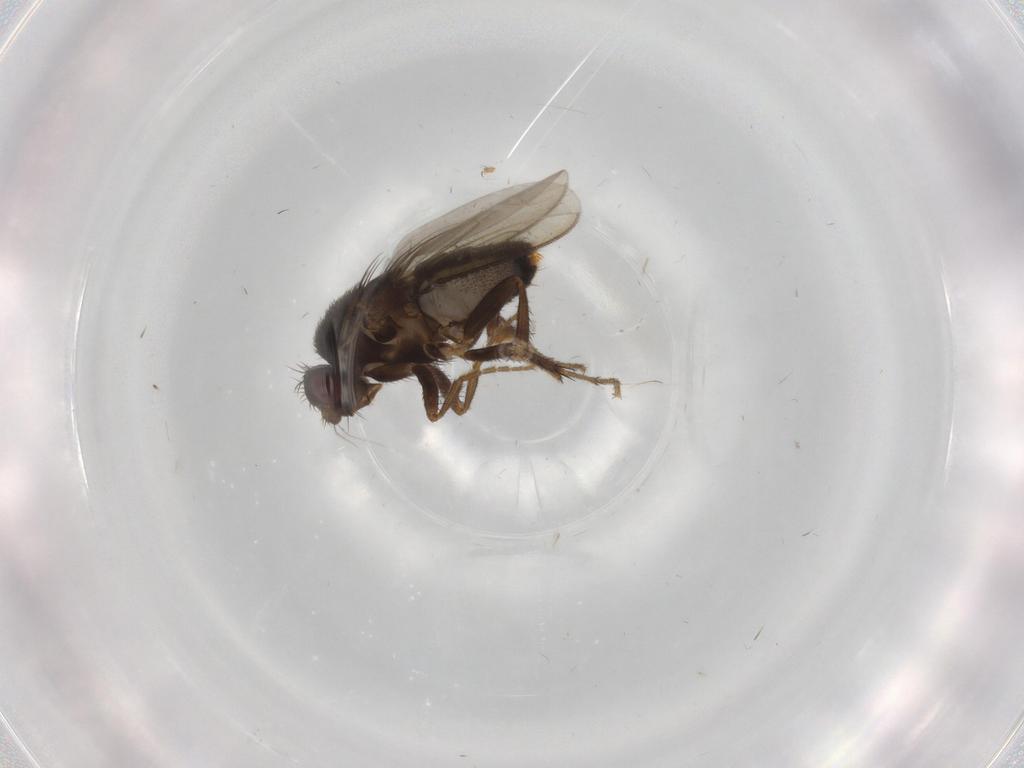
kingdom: Animalia
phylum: Arthropoda
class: Insecta
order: Diptera
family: Sphaeroceridae
